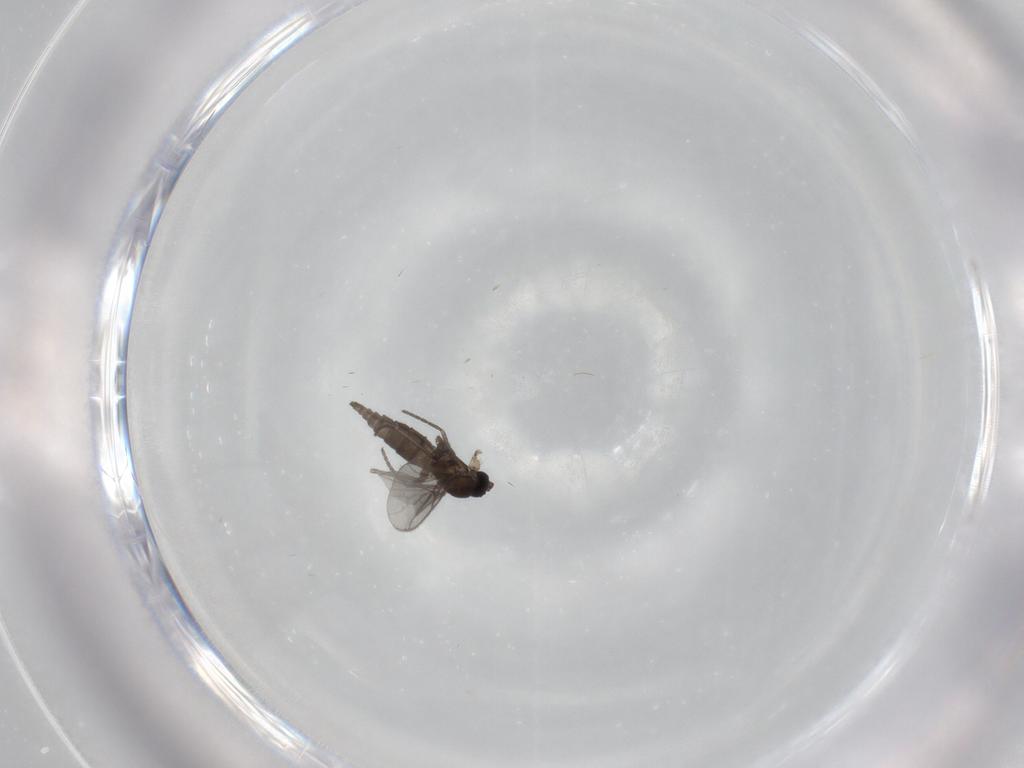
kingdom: Animalia
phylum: Arthropoda
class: Insecta
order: Diptera
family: Dolichopodidae
